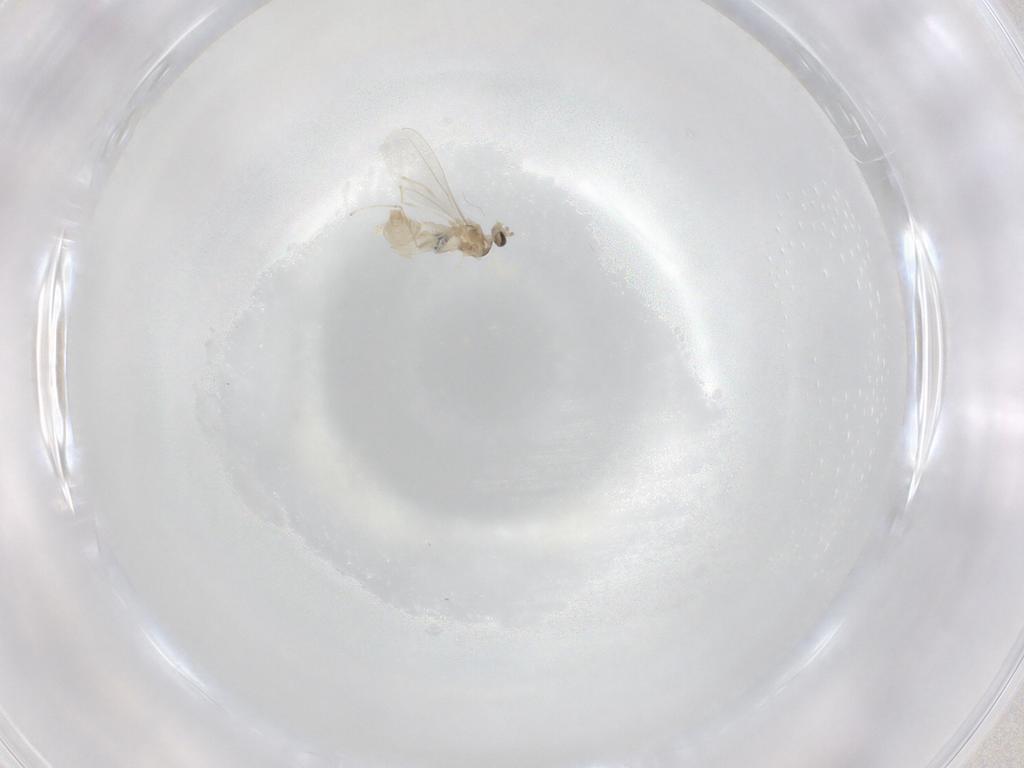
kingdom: Animalia
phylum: Arthropoda
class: Insecta
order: Diptera
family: Cecidomyiidae
